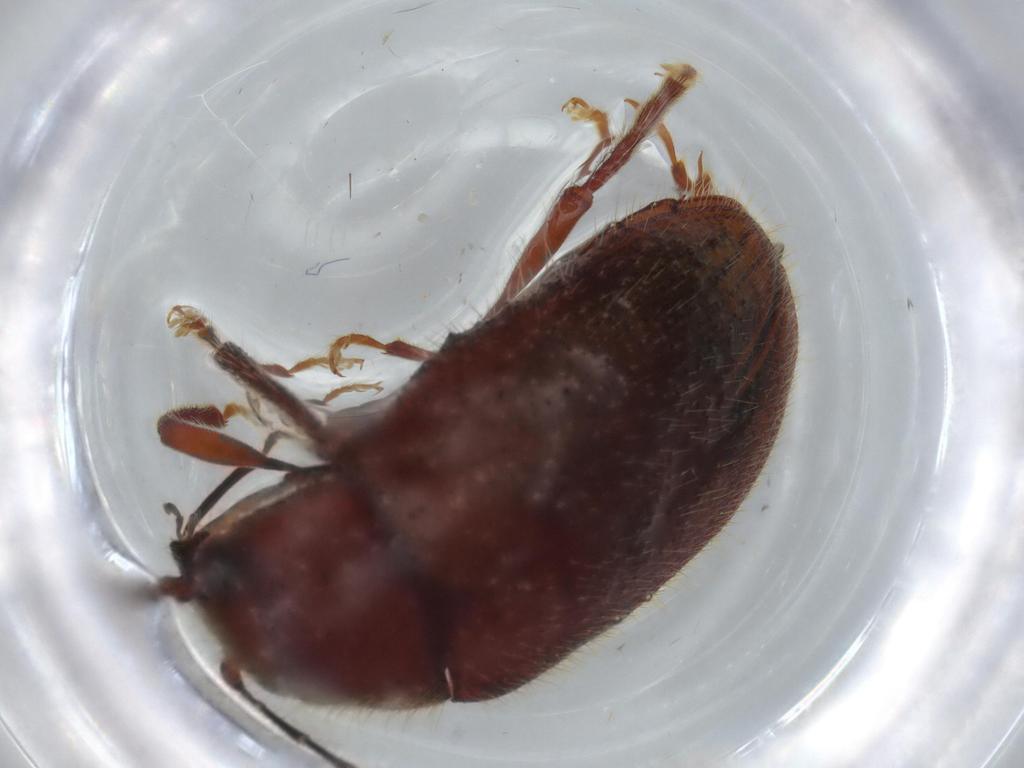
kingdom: Animalia
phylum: Arthropoda
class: Insecta
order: Coleoptera
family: Artematopodidae
